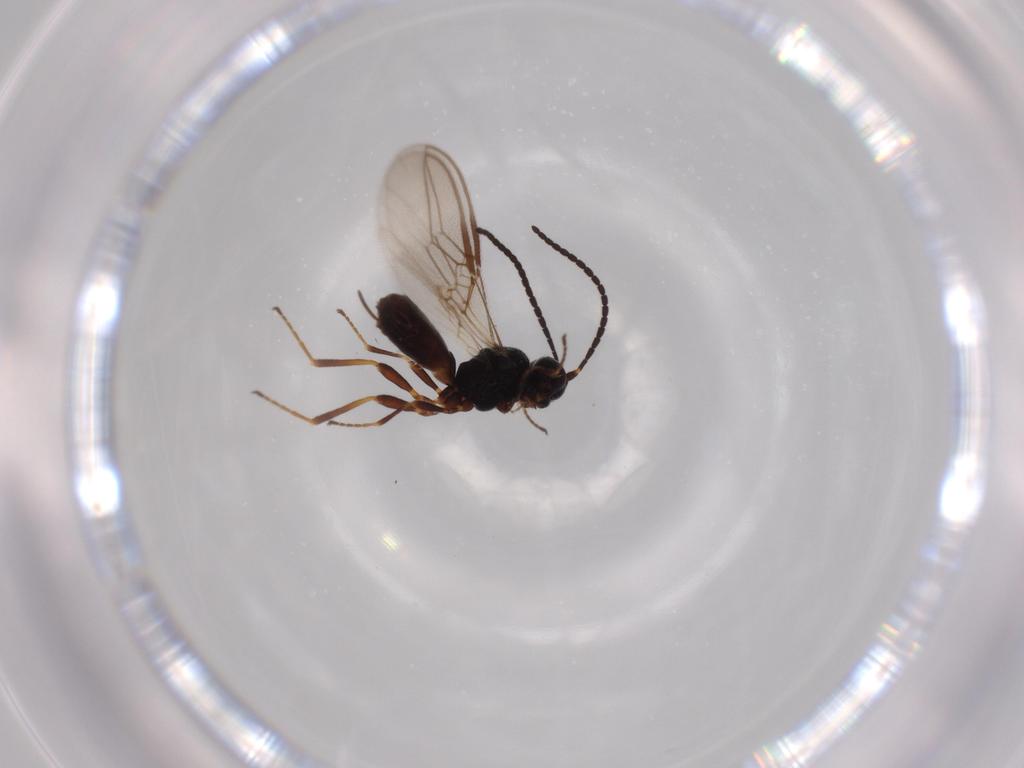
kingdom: Animalia
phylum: Arthropoda
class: Insecta
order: Hymenoptera
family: Braconidae
